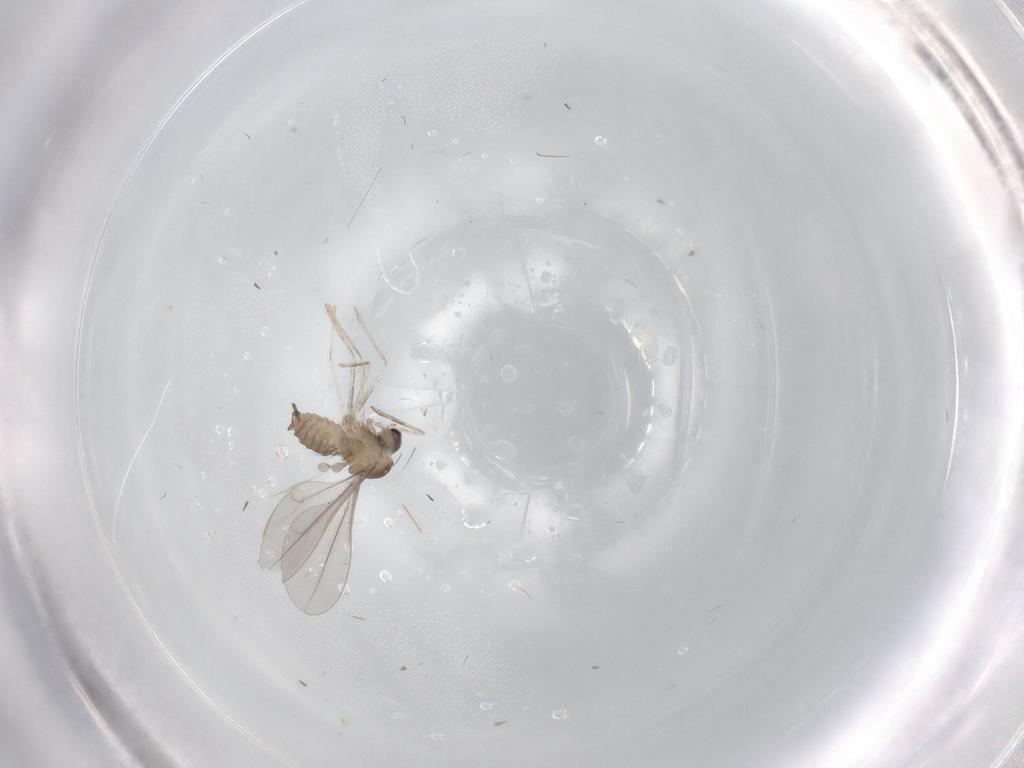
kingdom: Animalia
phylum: Arthropoda
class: Insecta
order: Diptera
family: Cecidomyiidae
